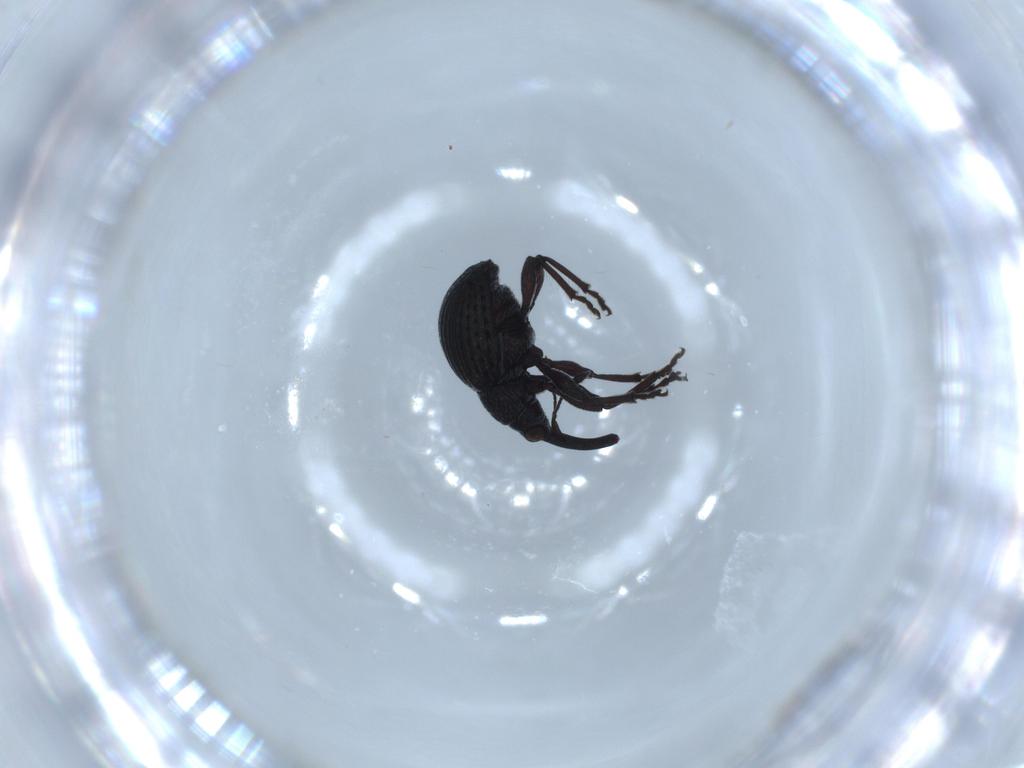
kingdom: Animalia
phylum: Arthropoda
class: Insecta
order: Coleoptera
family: Brentidae
